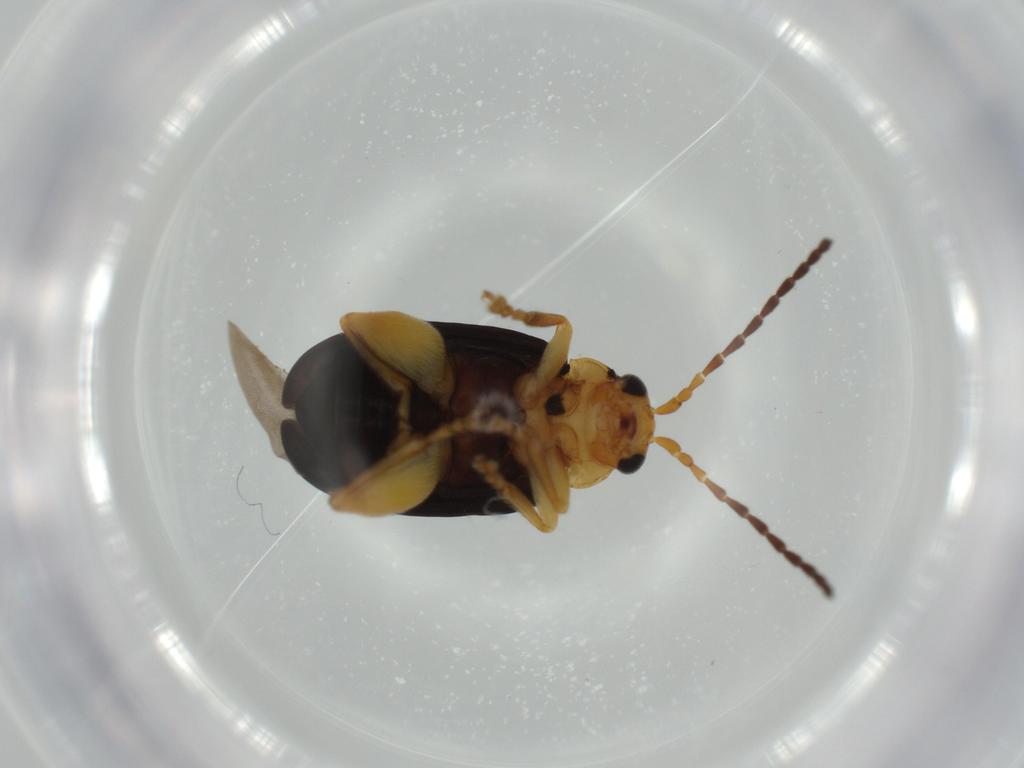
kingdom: Animalia
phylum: Arthropoda
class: Insecta
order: Coleoptera
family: Chrysomelidae
